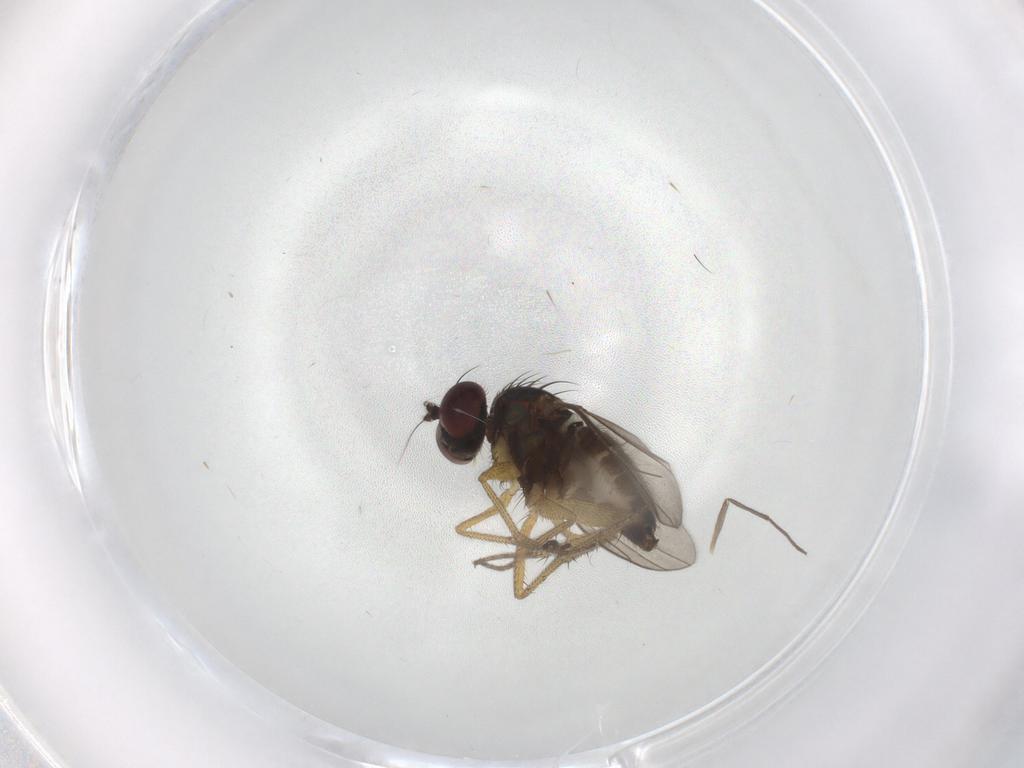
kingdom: Animalia
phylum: Arthropoda
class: Insecta
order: Diptera
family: Dolichopodidae
